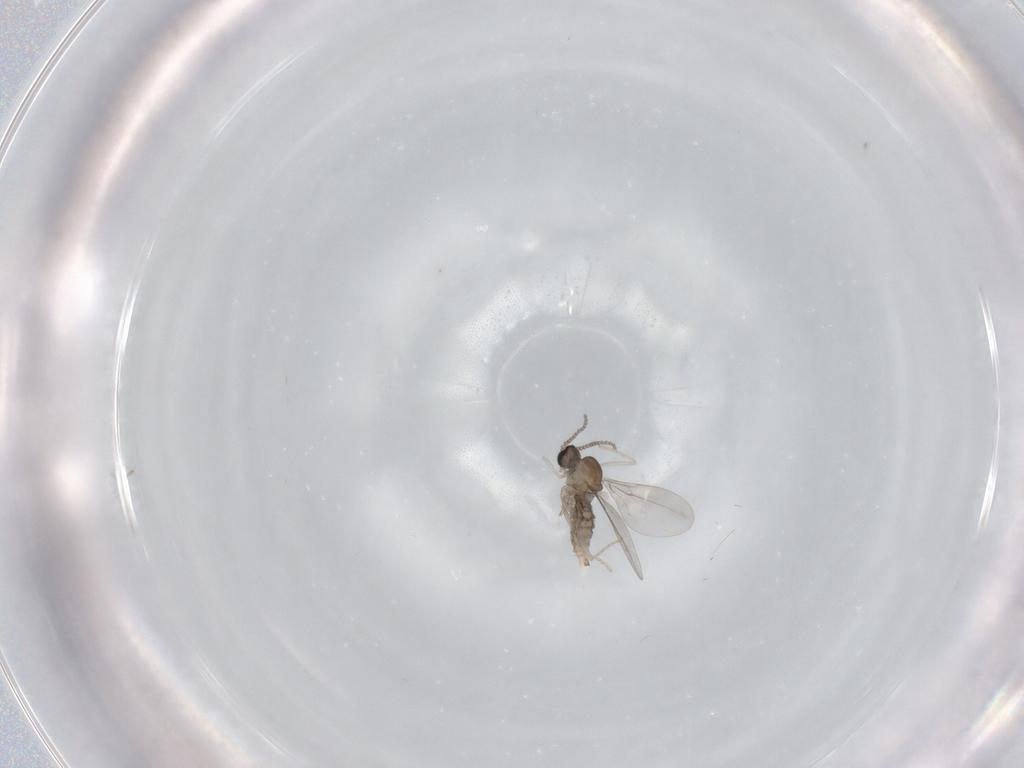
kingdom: Animalia
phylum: Arthropoda
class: Insecta
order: Diptera
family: Cecidomyiidae
